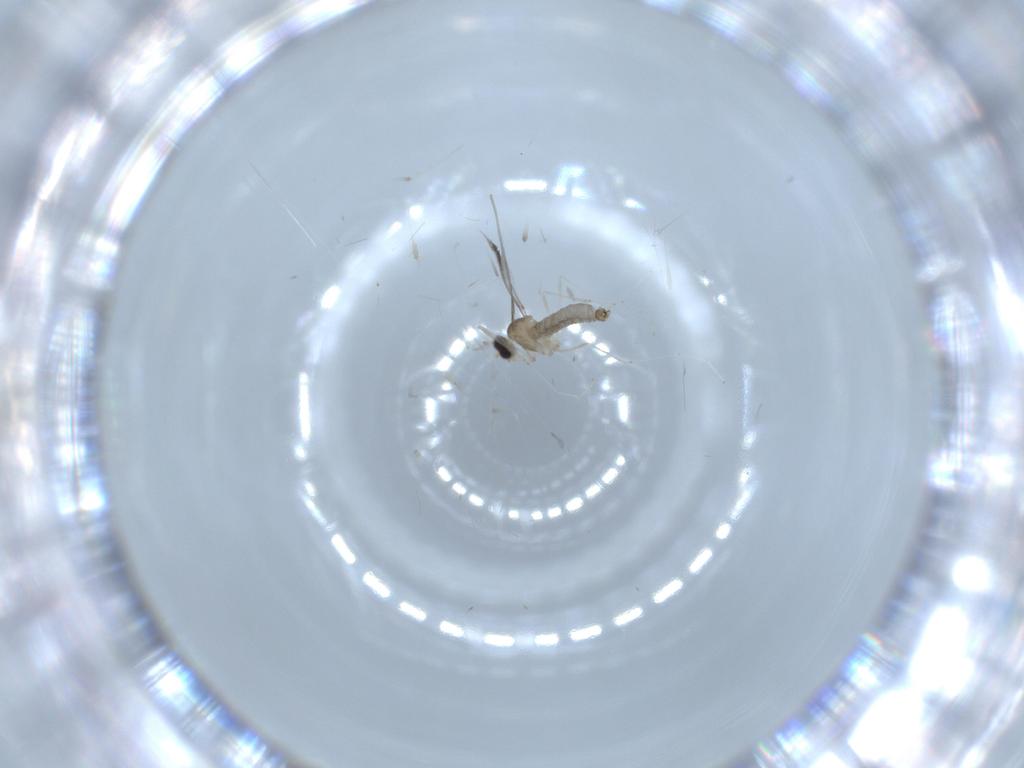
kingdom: Animalia
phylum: Arthropoda
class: Insecta
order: Diptera
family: Cecidomyiidae
